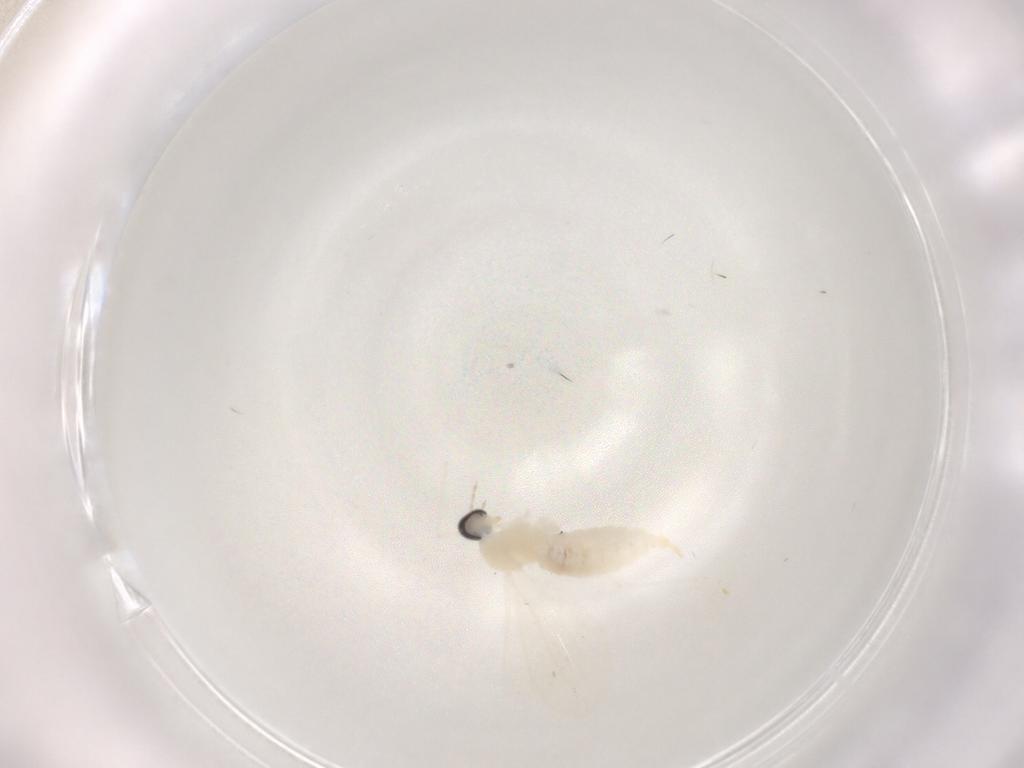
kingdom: Animalia
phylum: Arthropoda
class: Insecta
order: Diptera
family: Cecidomyiidae
